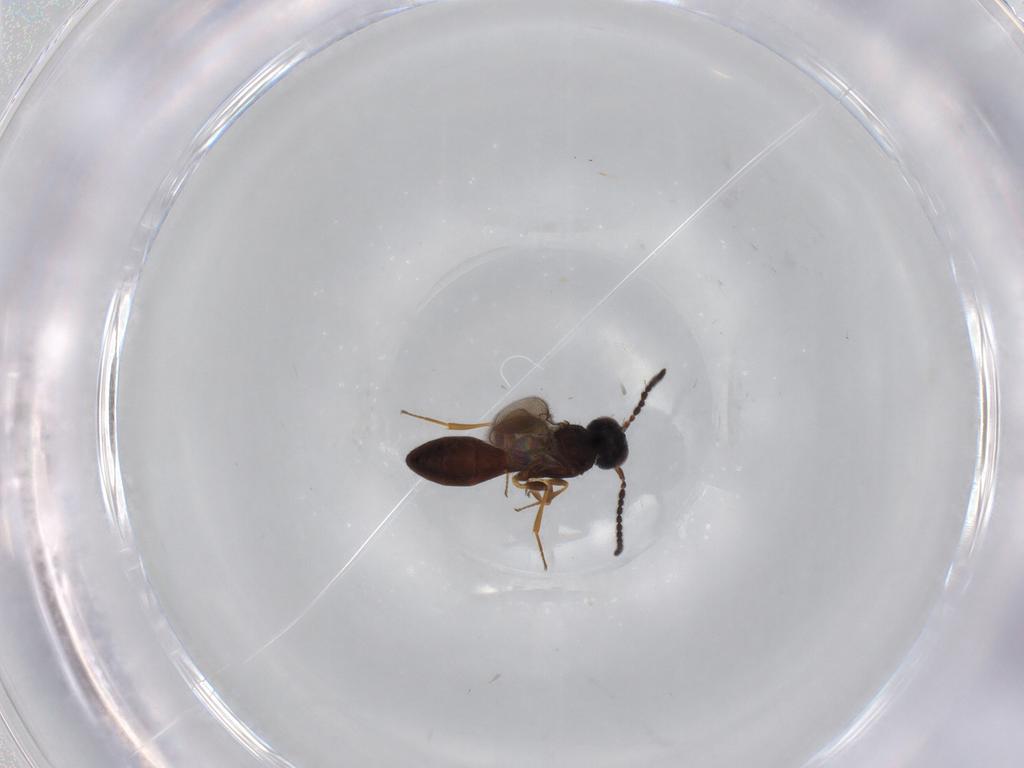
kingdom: Animalia
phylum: Arthropoda
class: Insecta
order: Hymenoptera
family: Scelionidae
